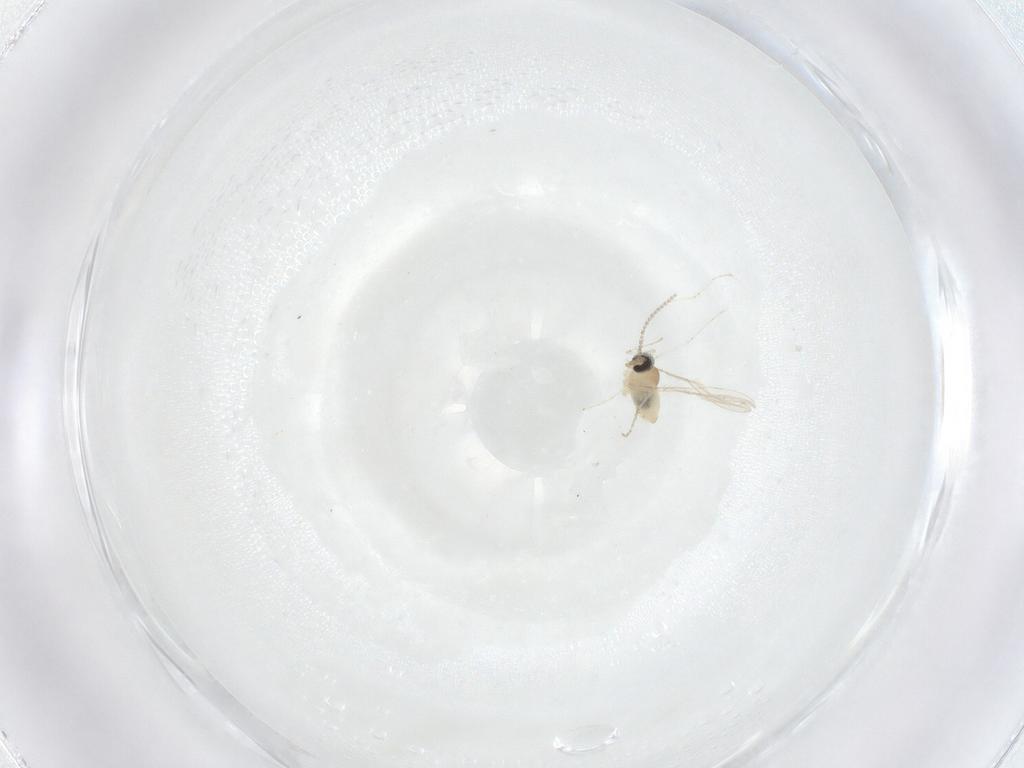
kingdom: Animalia
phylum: Arthropoda
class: Insecta
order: Diptera
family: Cecidomyiidae
